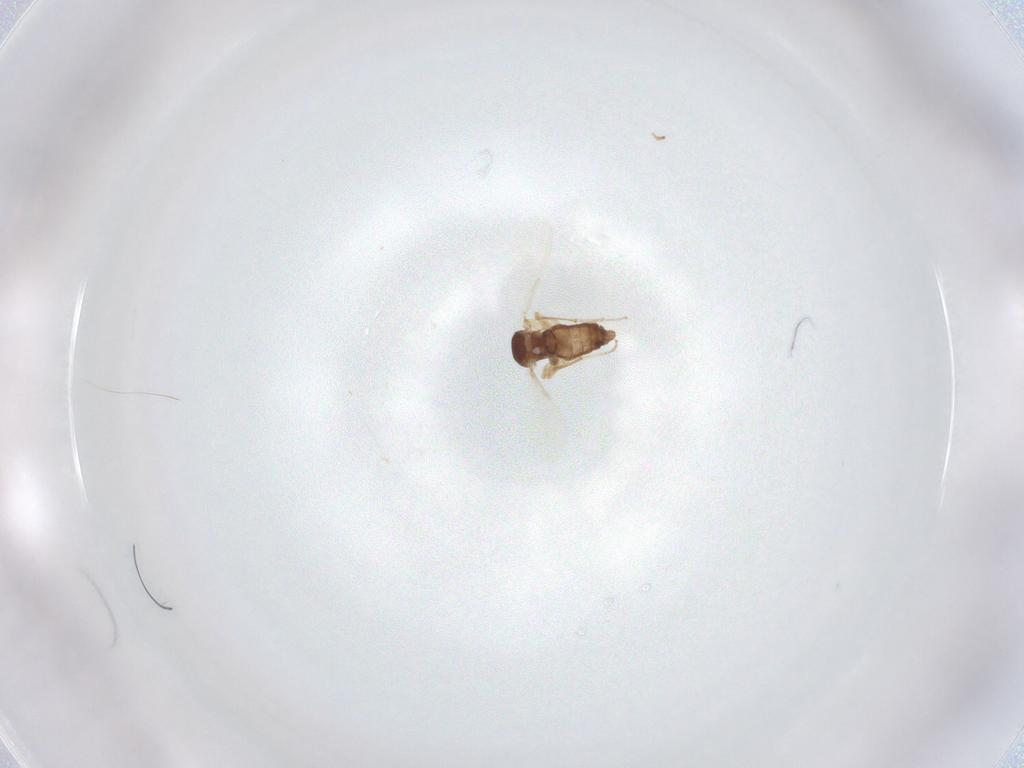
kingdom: Animalia
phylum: Arthropoda
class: Insecta
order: Diptera
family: Ceratopogonidae
